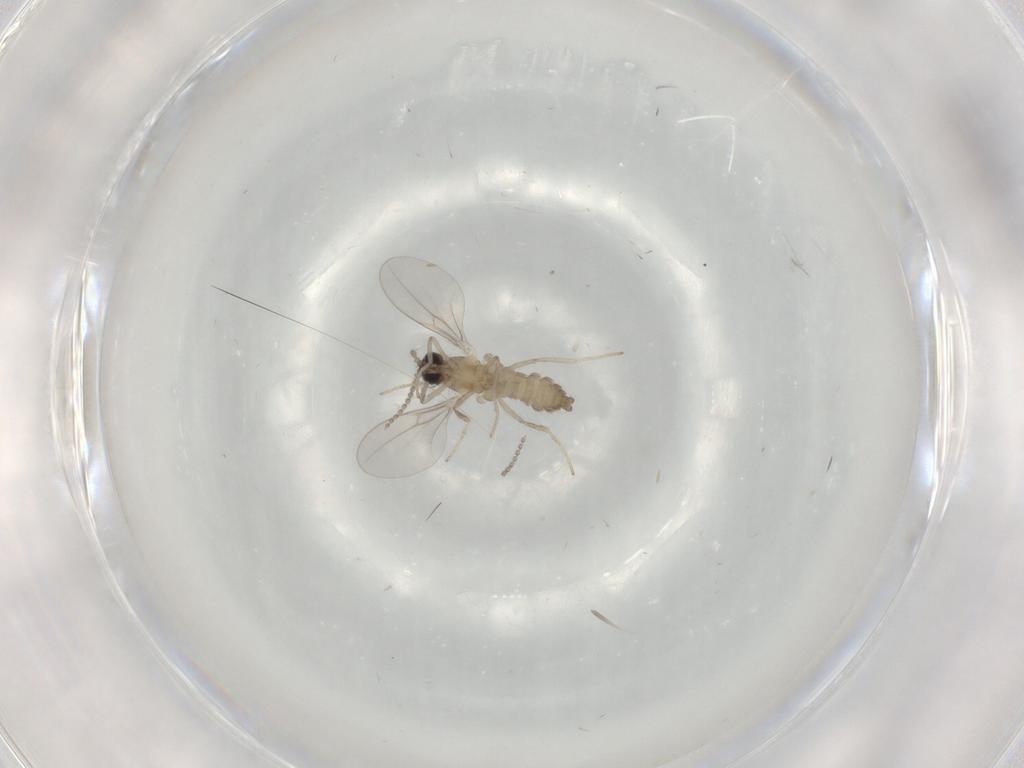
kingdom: Animalia
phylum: Arthropoda
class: Insecta
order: Diptera
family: Cecidomyiidae
